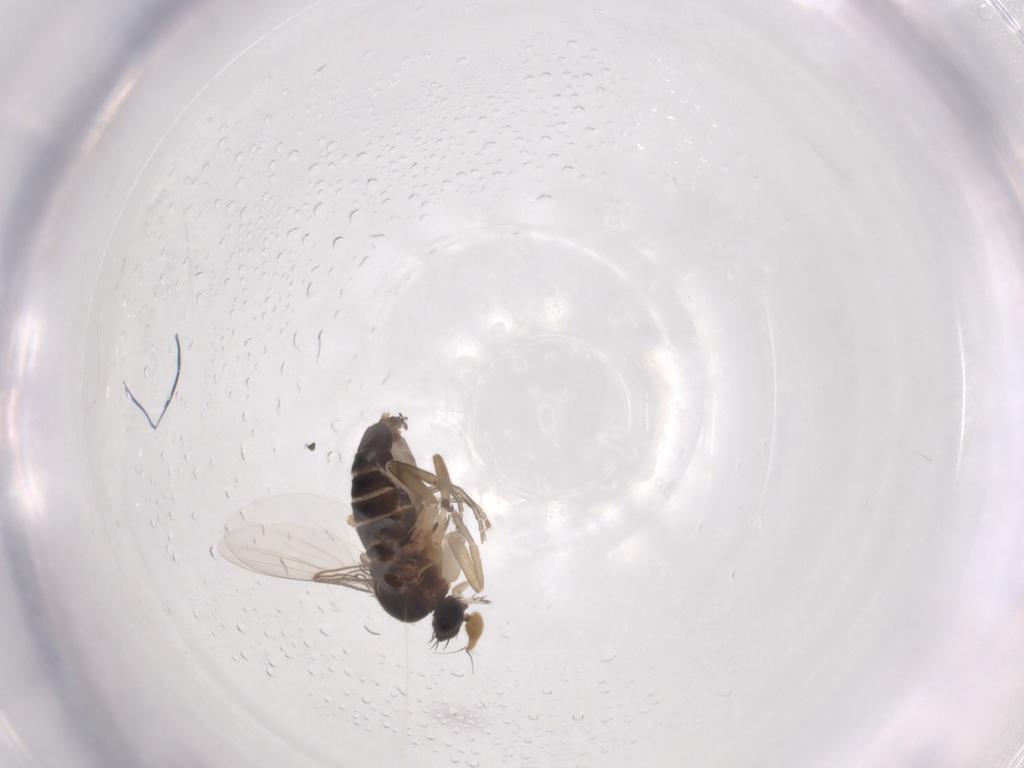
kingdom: Animalia
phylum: Arthropoda
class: Insecta
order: Diptera
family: Phoridae
